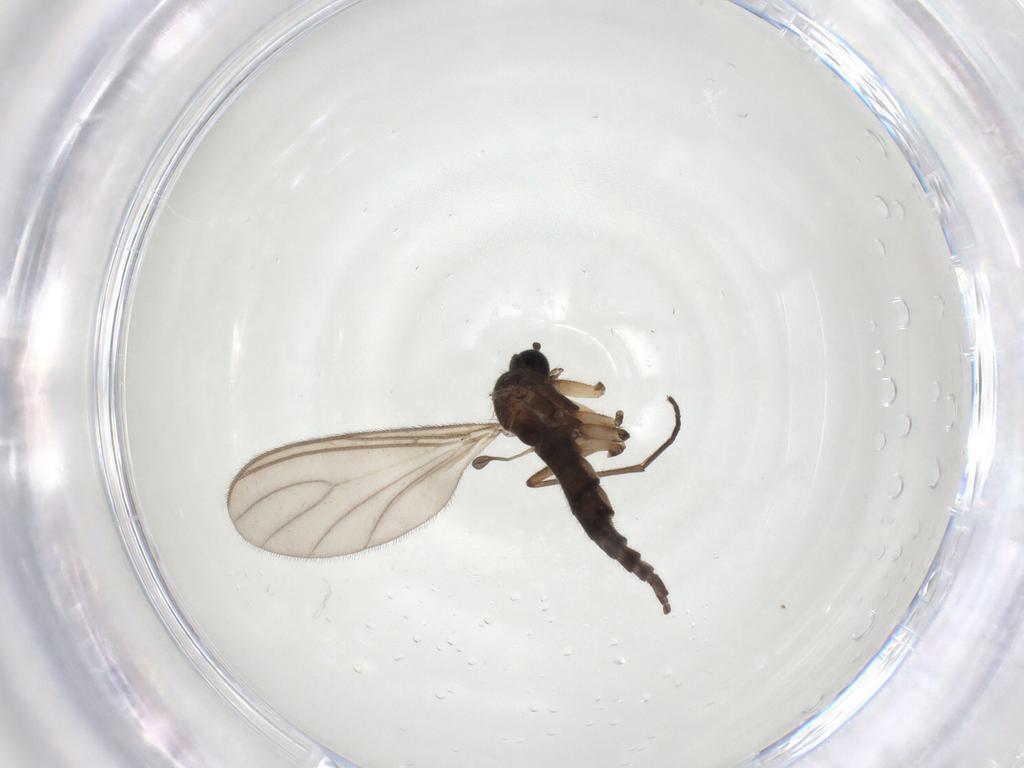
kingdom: Animalia
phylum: Arthropoda
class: Insecta
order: Diptera
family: Sciaridae
